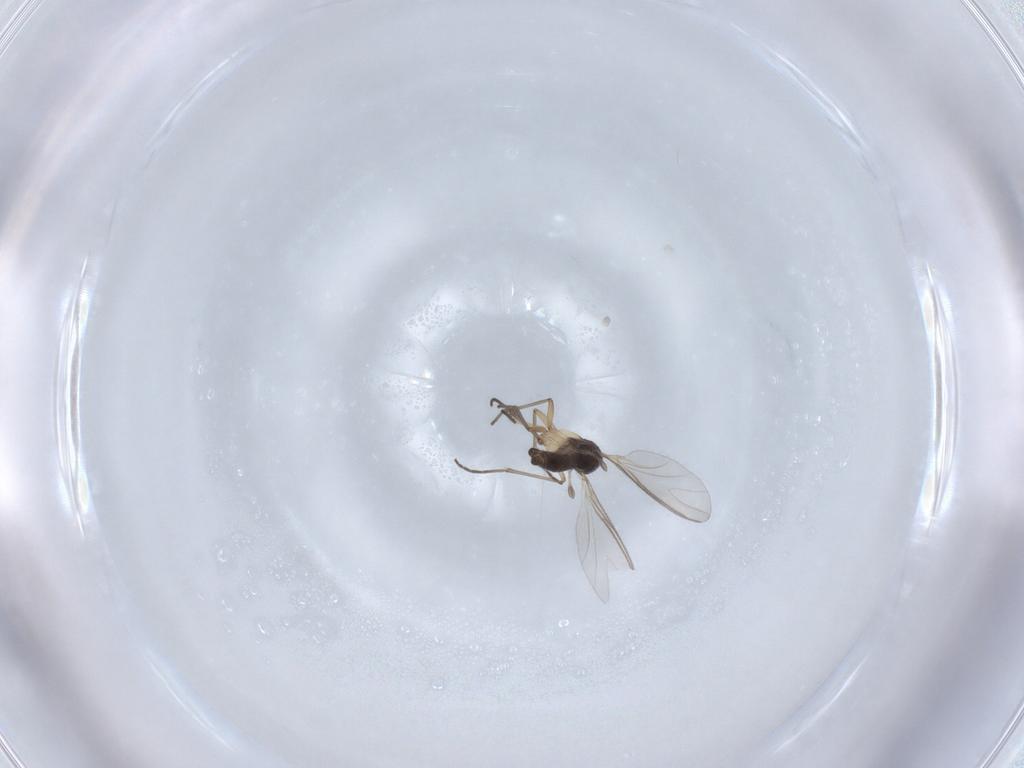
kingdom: Animalia
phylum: Arthropoda
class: Insecta
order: Diptera
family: Sciaridae
